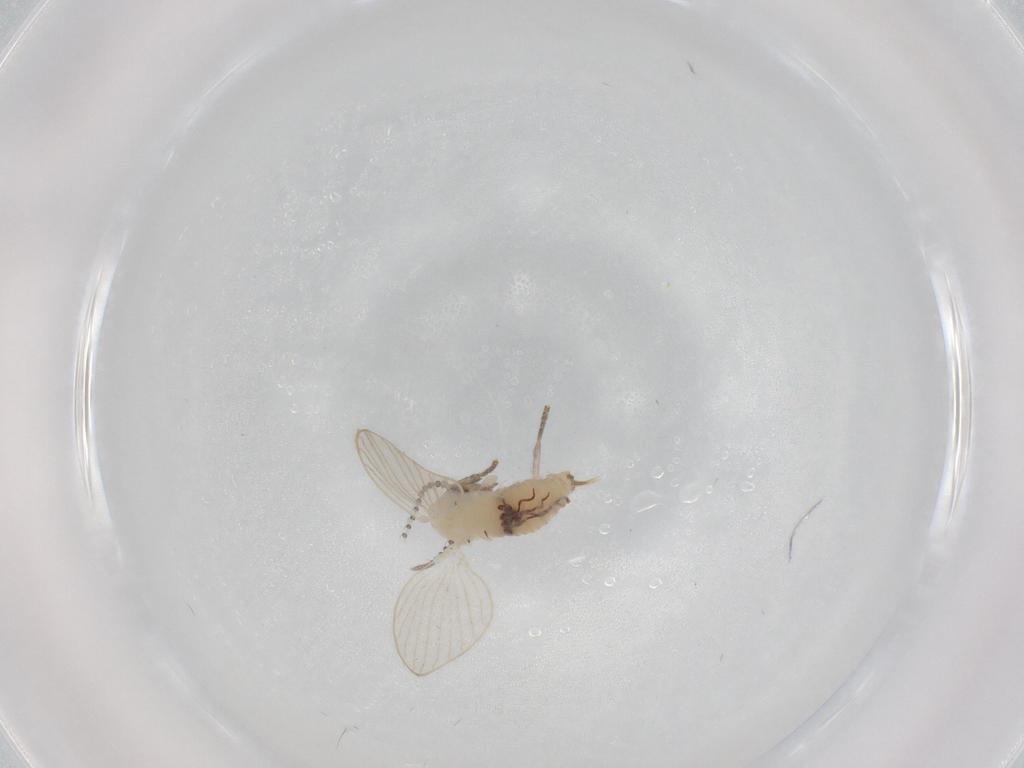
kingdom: Animalia
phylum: Arthropoda
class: Insecta
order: Diptera
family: Psychodidae
